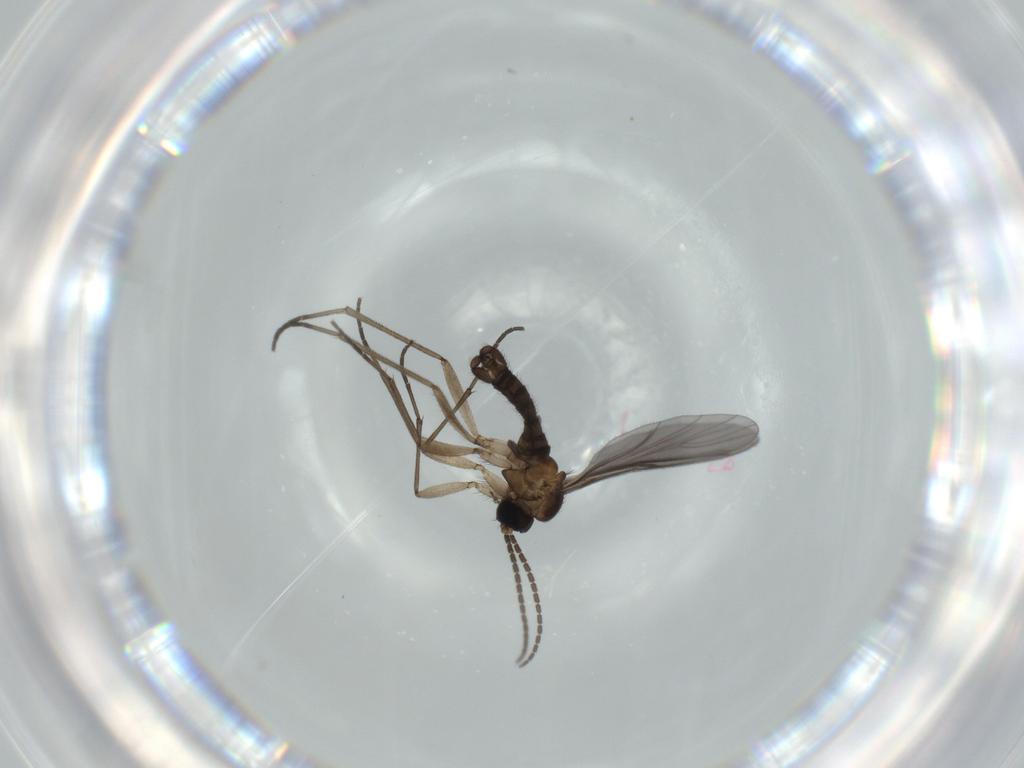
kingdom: Animalia
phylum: Arthropoda
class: Insecta
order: Diptera
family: Sciaridae
